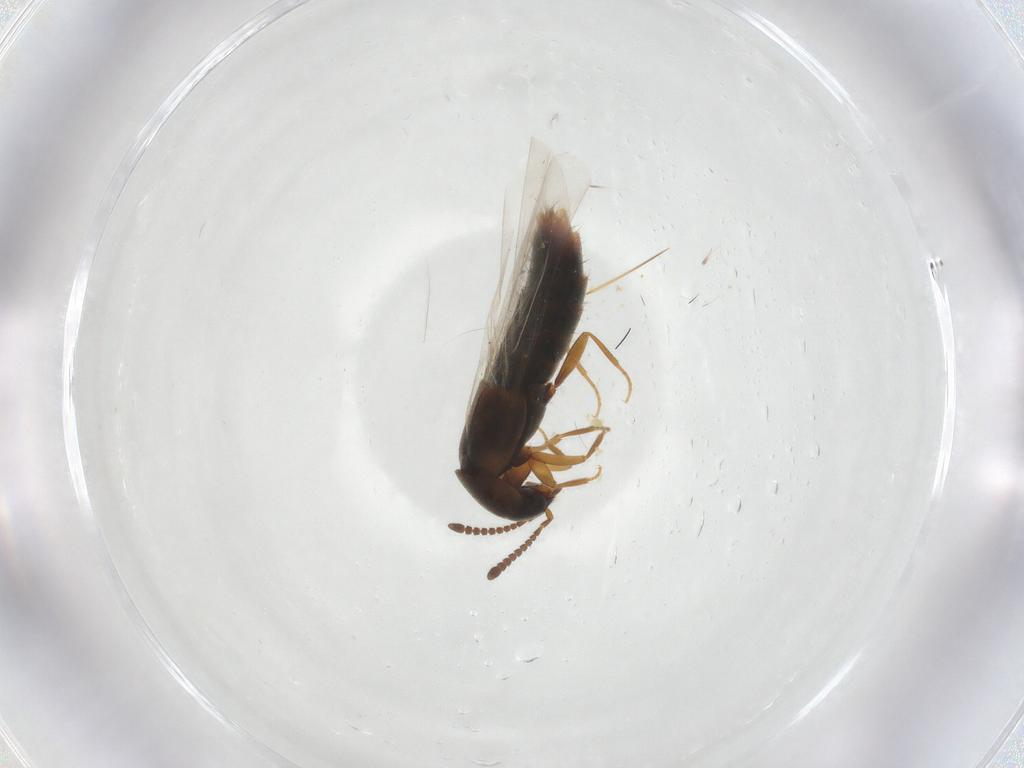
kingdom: Animalia
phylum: Arthropoda
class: Insecta
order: Coleoptera
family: Staphylinidae
